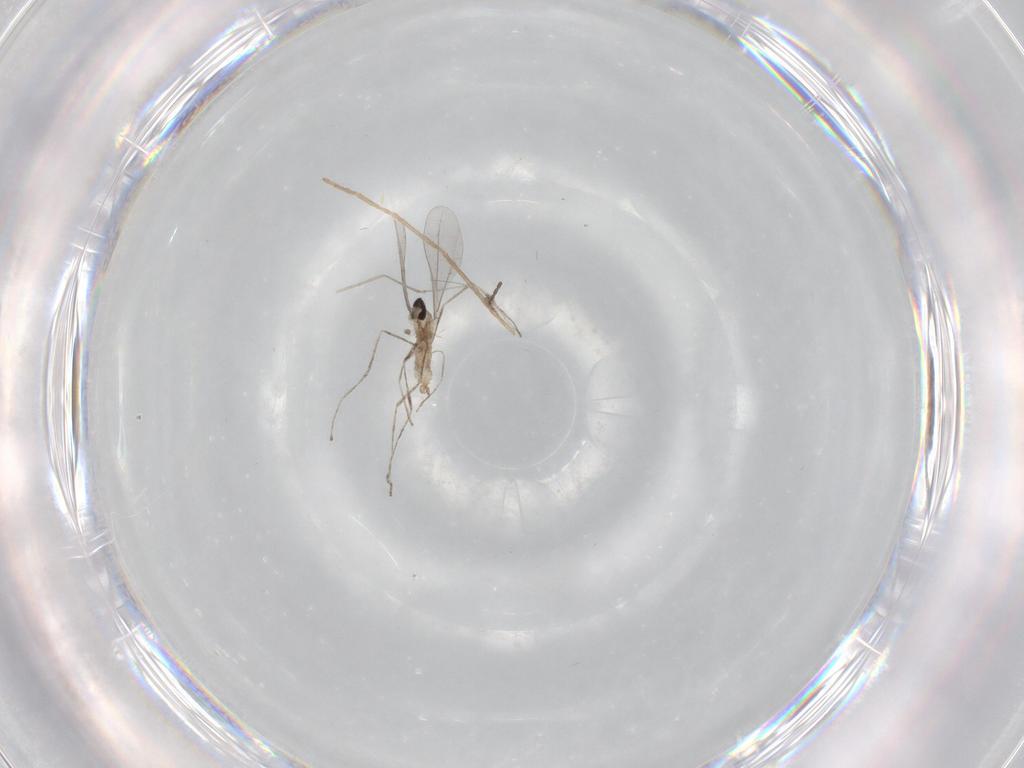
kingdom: Animalia
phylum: Arthropoda
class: Insecta
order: Diptera
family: Chironomidae
